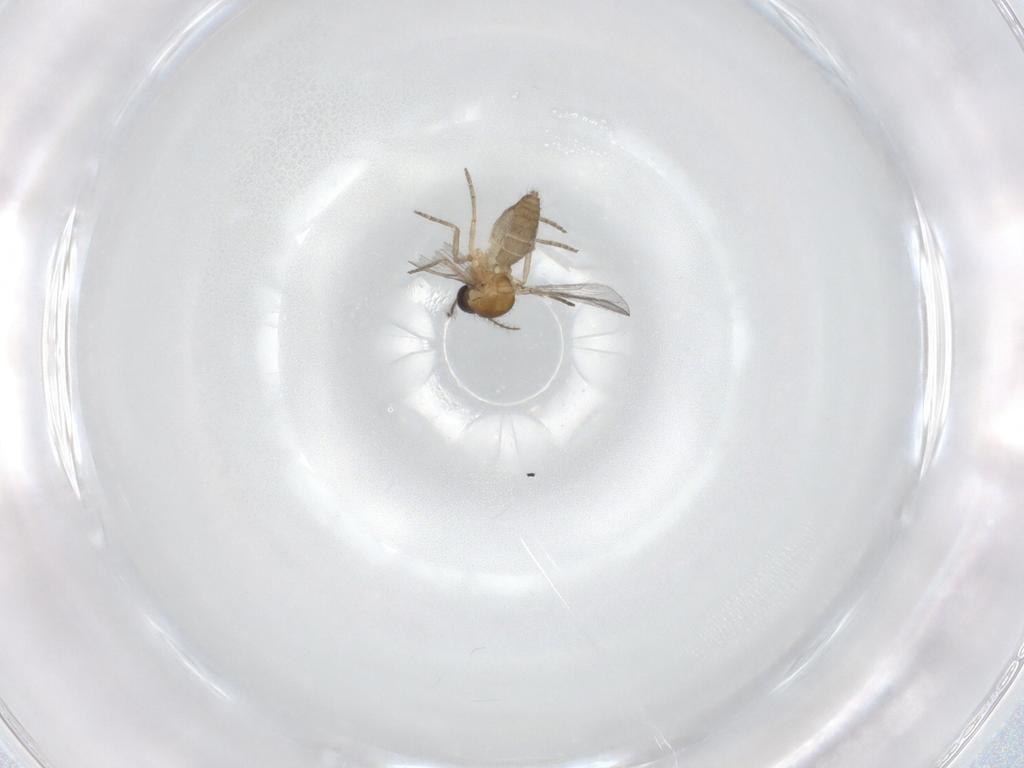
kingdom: Animalia
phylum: Arthropoda
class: Insecta
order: Diptera
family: Ceratopogonidae
